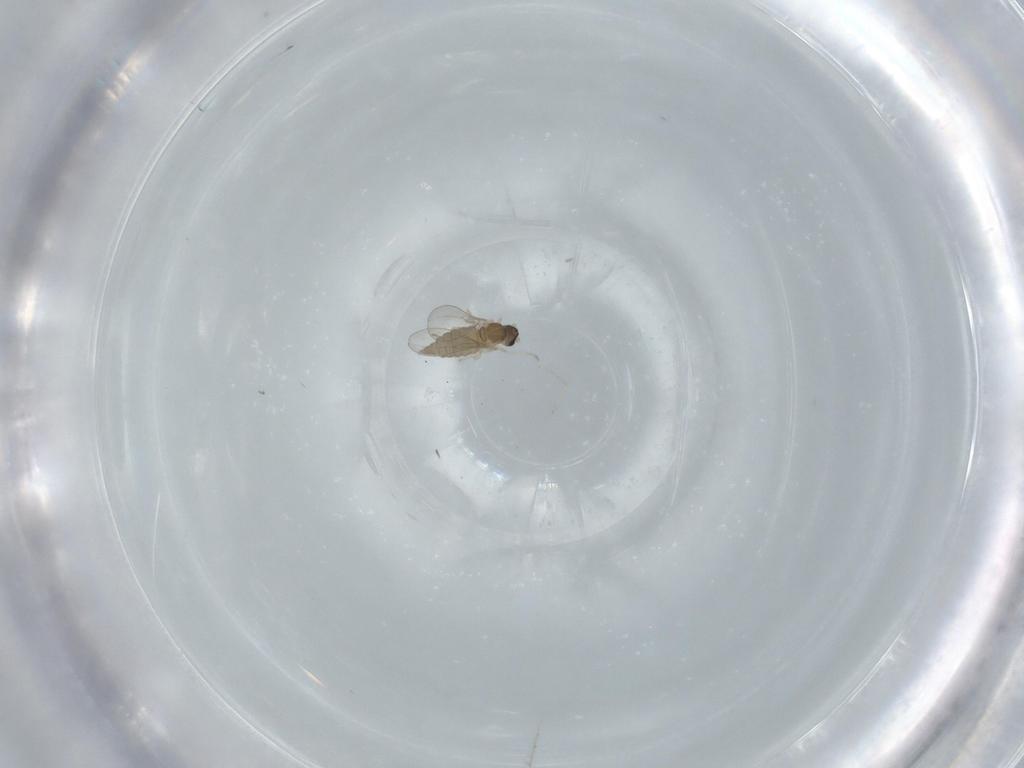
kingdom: Animalia
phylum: Arthropoda
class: Insecta
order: Diptera
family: Cecidomyiidae
